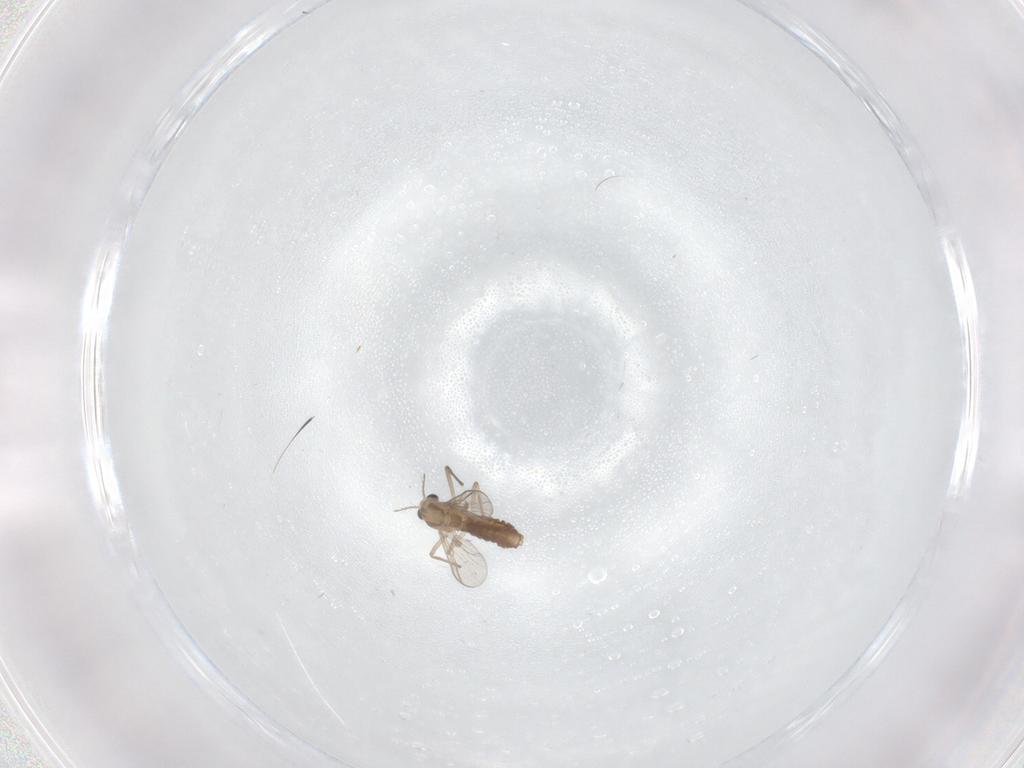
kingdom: Animalia
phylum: Arthropoda
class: Insecta
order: Diptera
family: Chironomidae
